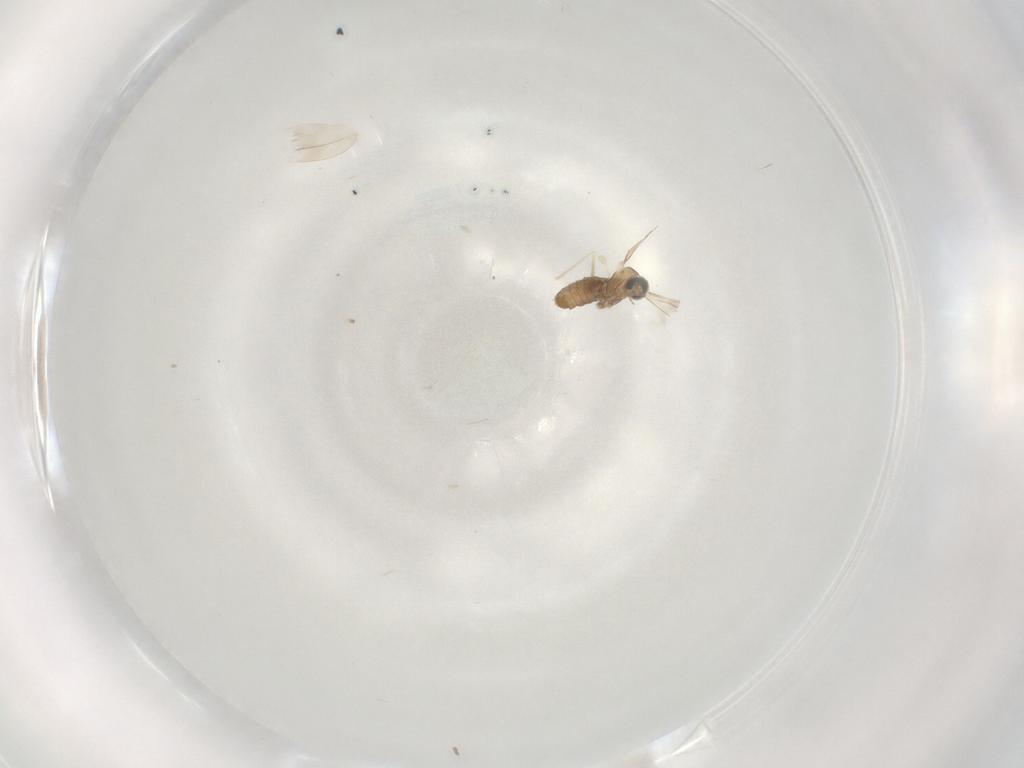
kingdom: Animalia
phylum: Arthropoda
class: Insecta
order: Diptera
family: Cecidomyiidae
